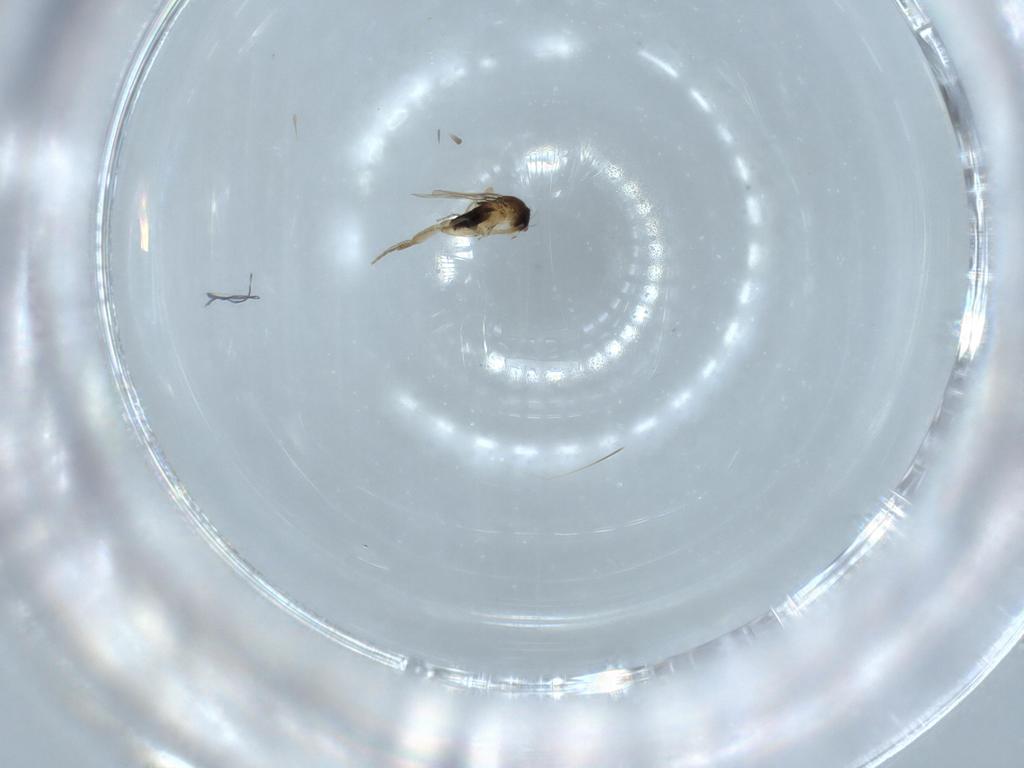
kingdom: Animalia
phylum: Arthropoda
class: Insecta
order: Diptera
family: Phoridae
